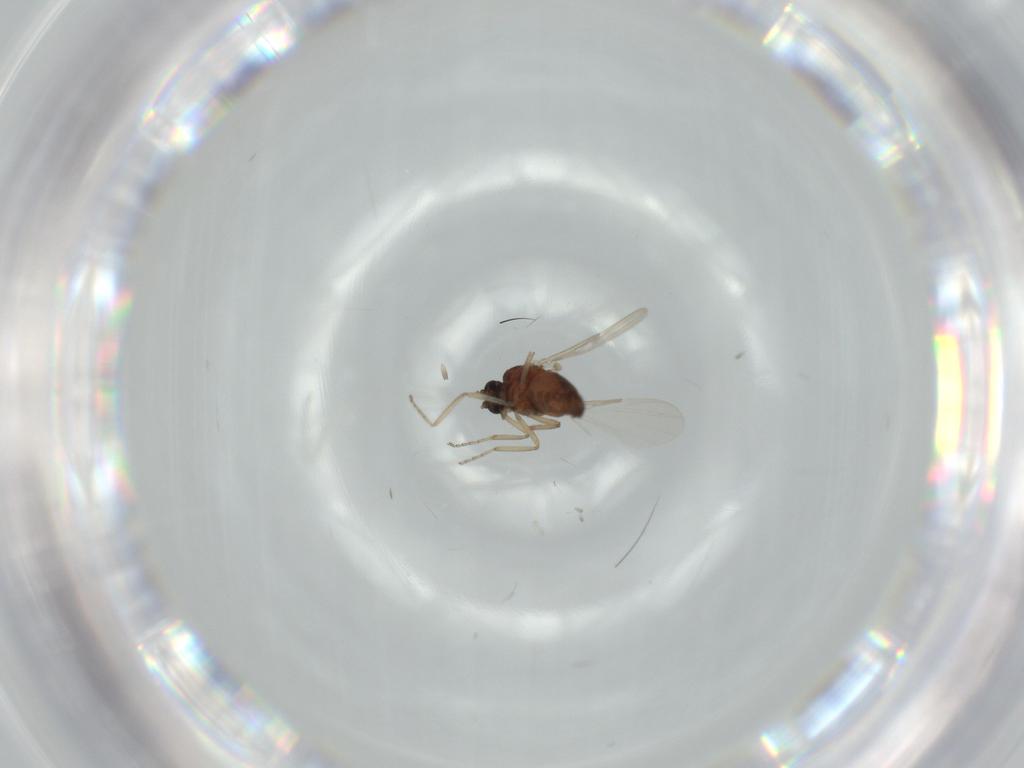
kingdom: Animalia
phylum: Arthropoda
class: Insecta
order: Diptera
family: Ceratopogonidae
